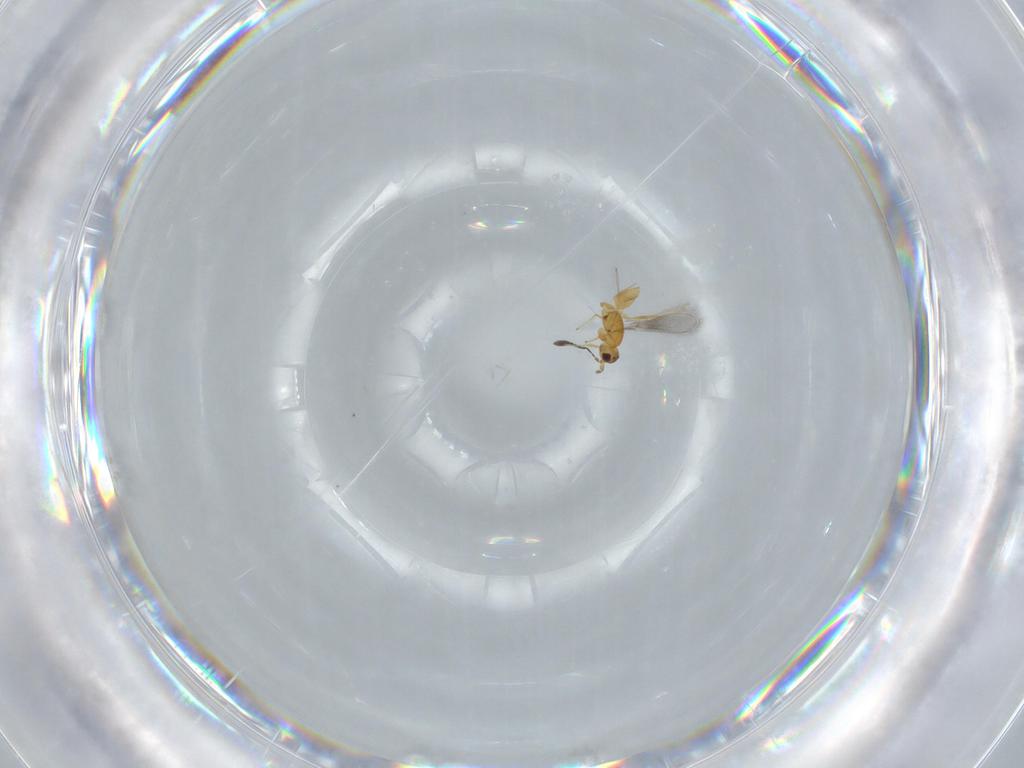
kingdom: Animalia
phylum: Arthropoda
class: Insecta
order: Hymenoptera
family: Mymaridae
